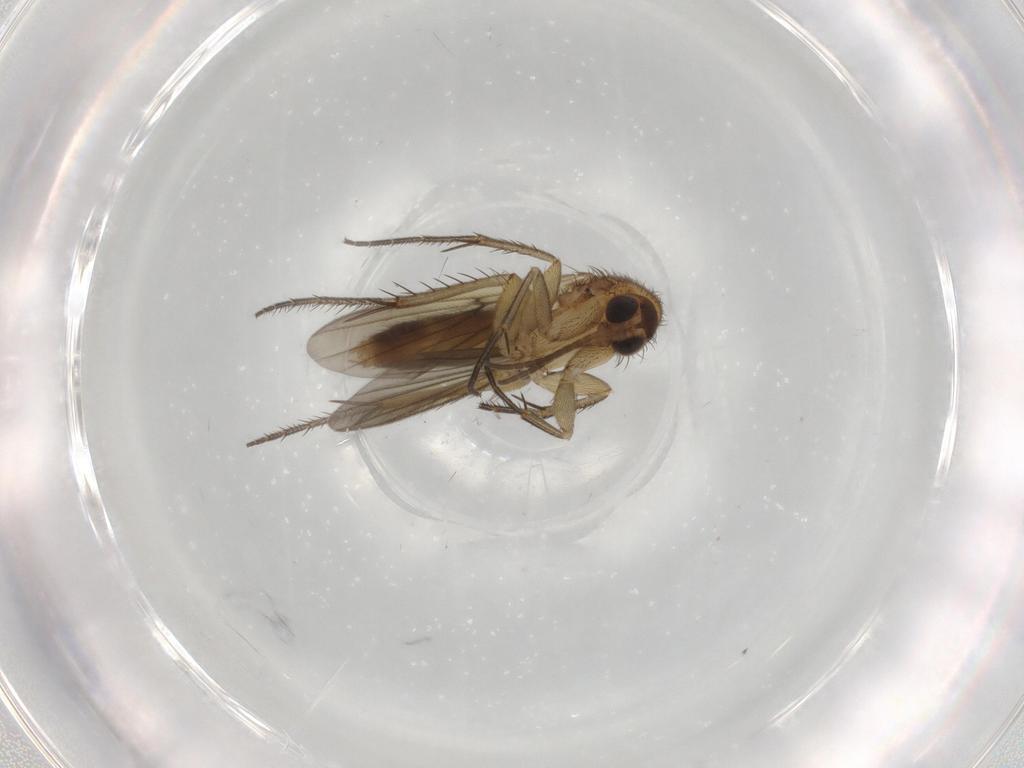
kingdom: Animalia
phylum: Arthropoda
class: Insecta
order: Diptera
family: Mycetophilidae
